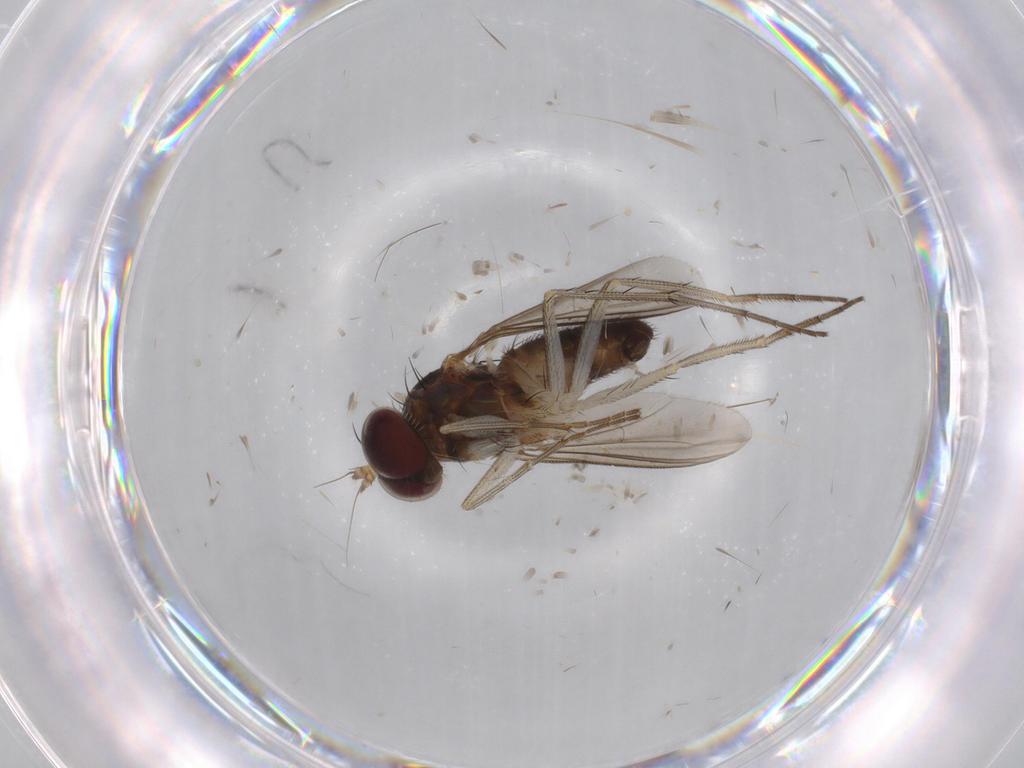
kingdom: Animalia
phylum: Arthropoda
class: Insecta
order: Diptera
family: Dolichopodidae
